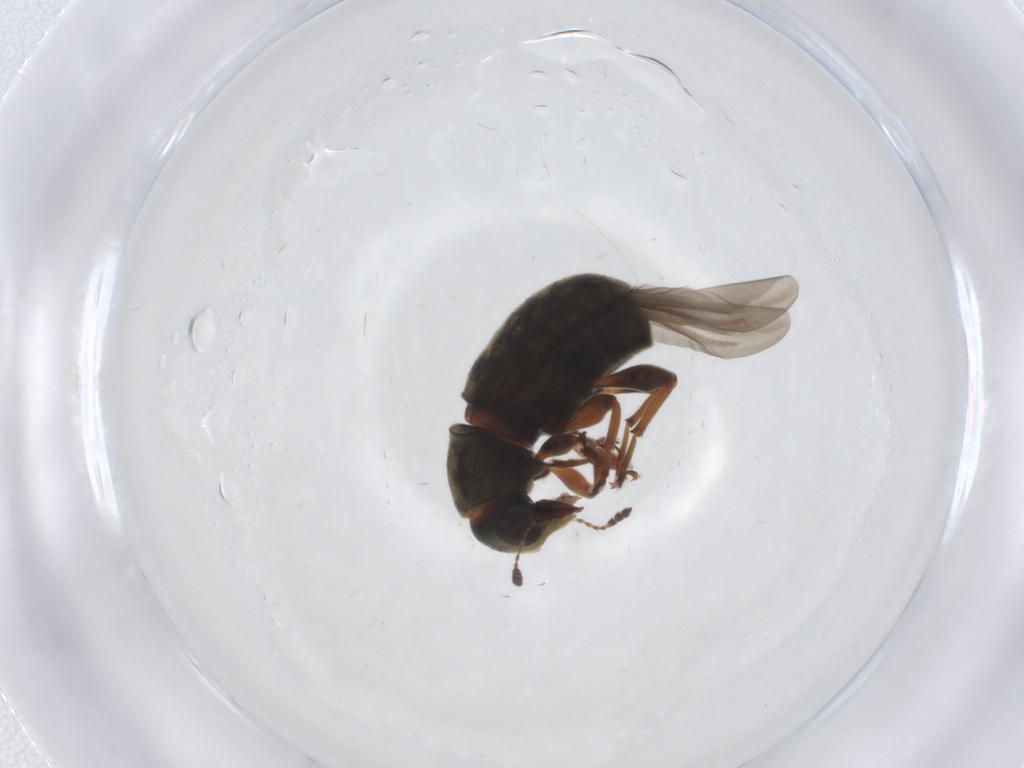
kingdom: Animalia
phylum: Arthropoda
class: Insecta
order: Coleoptera
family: Anthribidae
